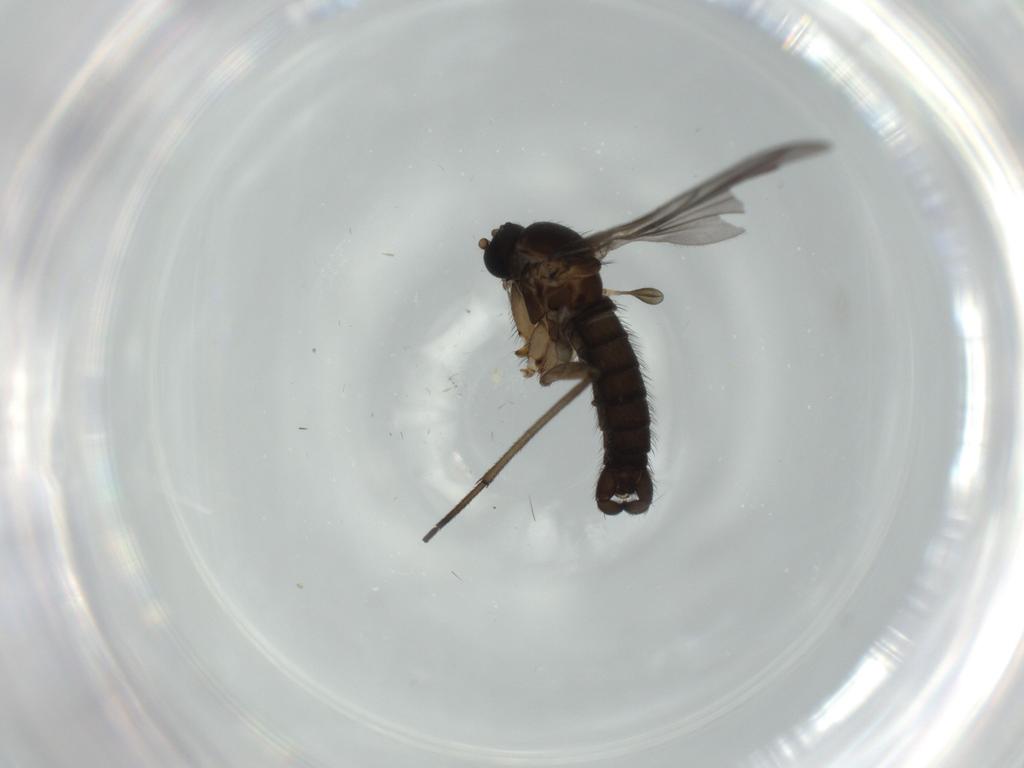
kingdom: Animalia
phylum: Arthropoda
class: Insecta
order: Diptera
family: Sciaridae
